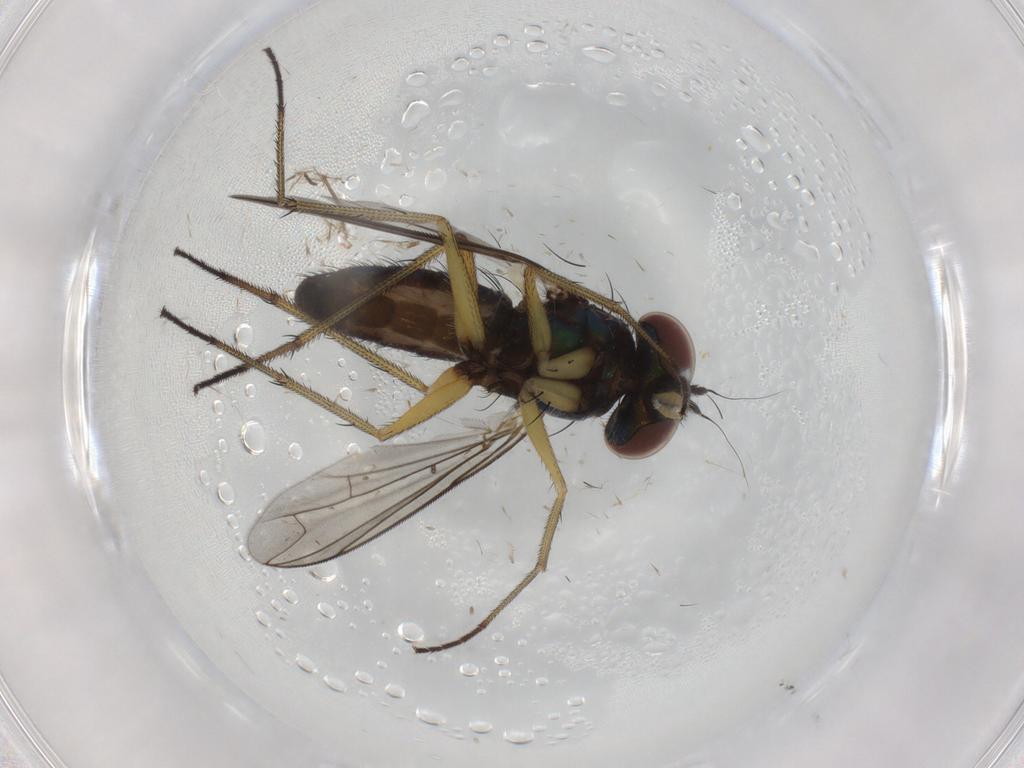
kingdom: Animalia
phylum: Arthropoda
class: Insecta
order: Diptera
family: Dolichopodidae
